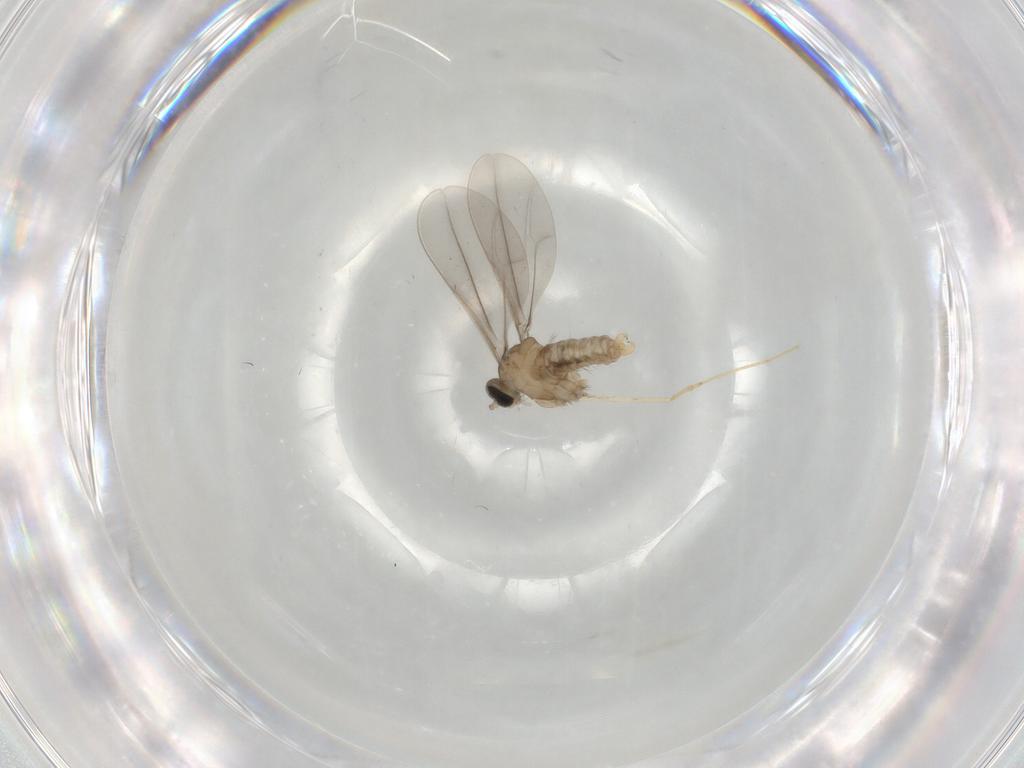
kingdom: Animalia
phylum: Arthropoda
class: Insecta
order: Diptera
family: Cecidomyiidae
